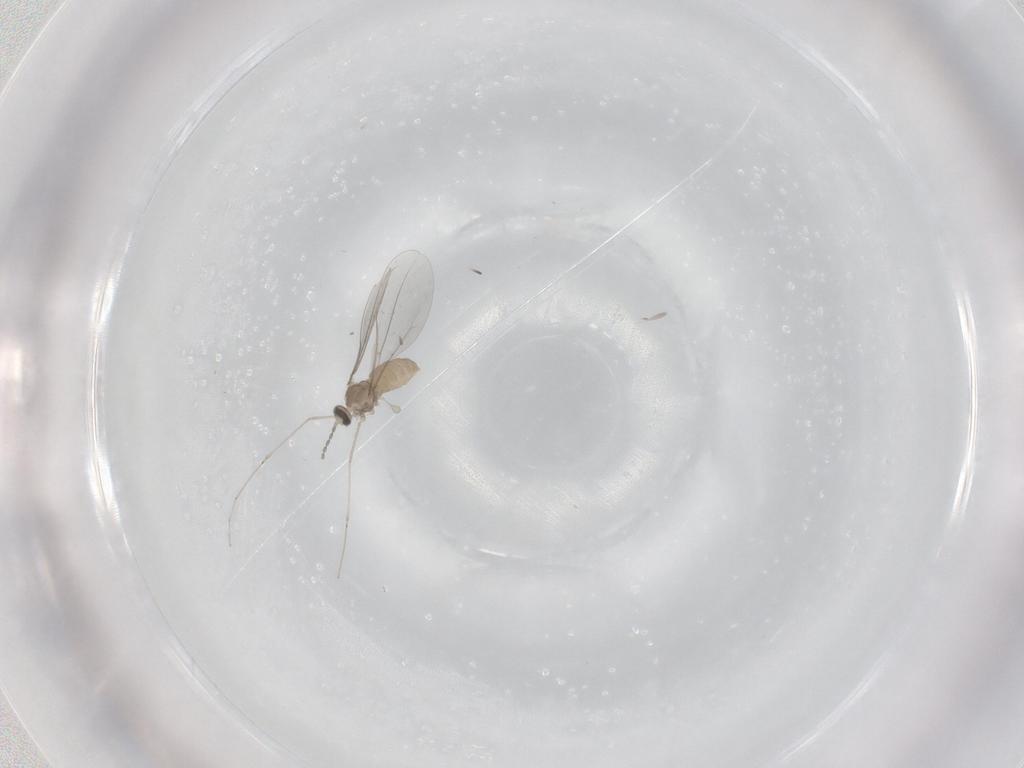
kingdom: Animalia
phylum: Arthropoda
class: Insecta
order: Diptera
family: Cecidomyiidae
